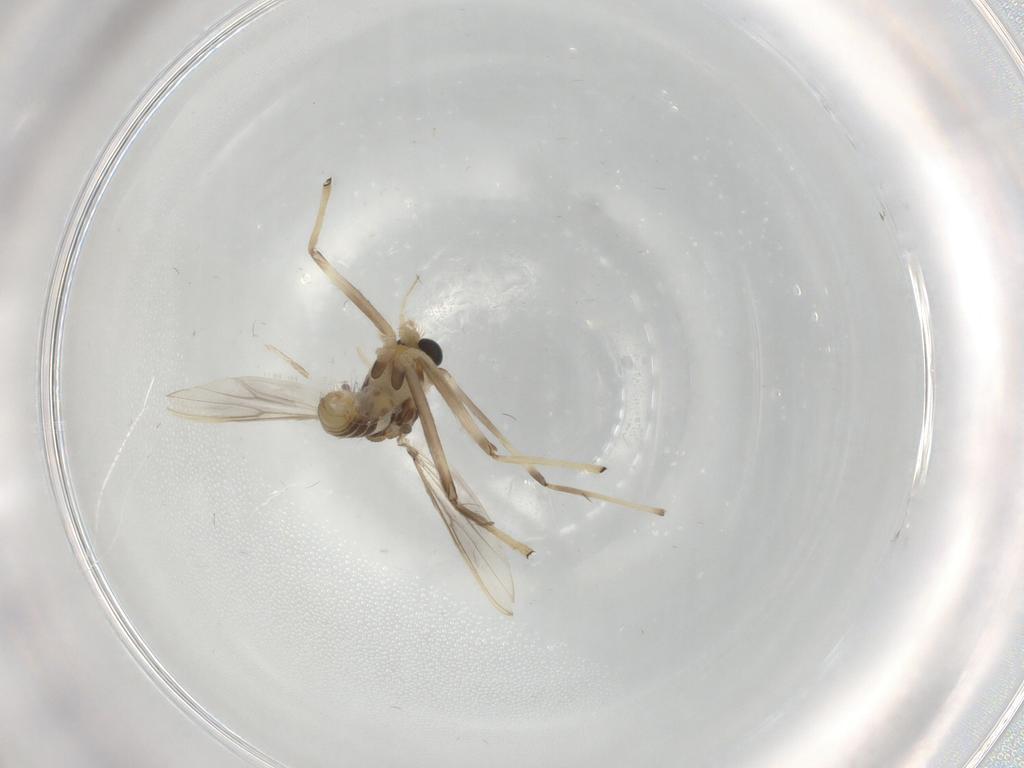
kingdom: Animalia
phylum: Arthropoda
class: Insecta
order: Diptera
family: Chironomidae
